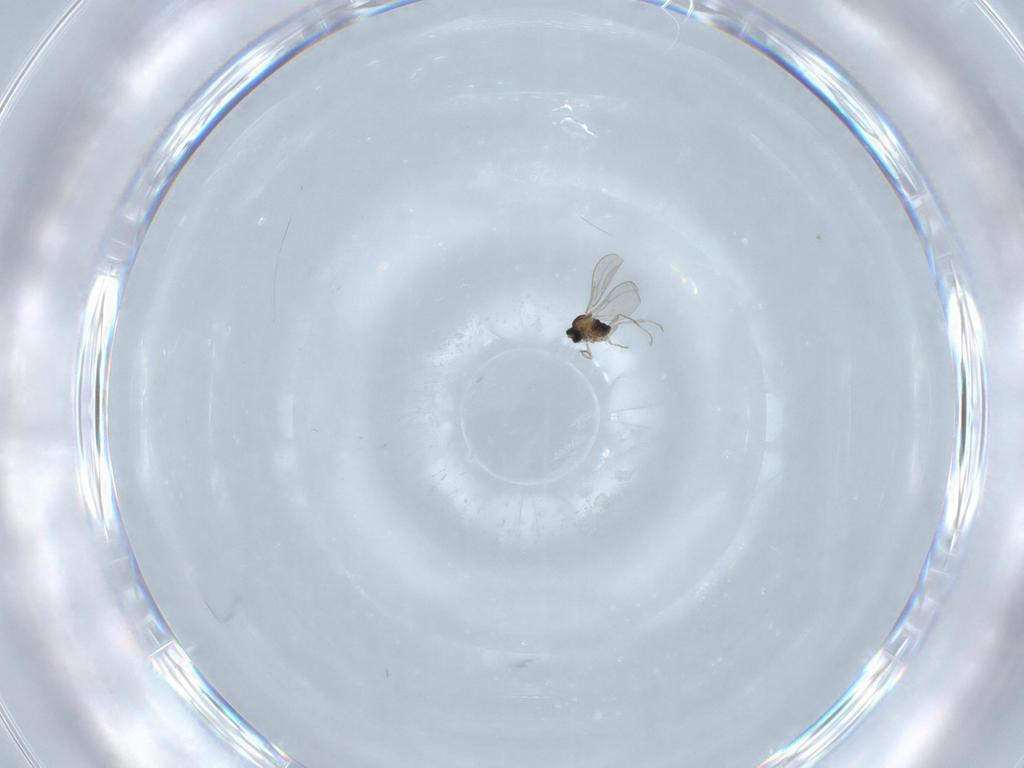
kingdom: Animalia
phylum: Arthropoda
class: Insecta
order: Diptera
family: Cecidomyiidae
